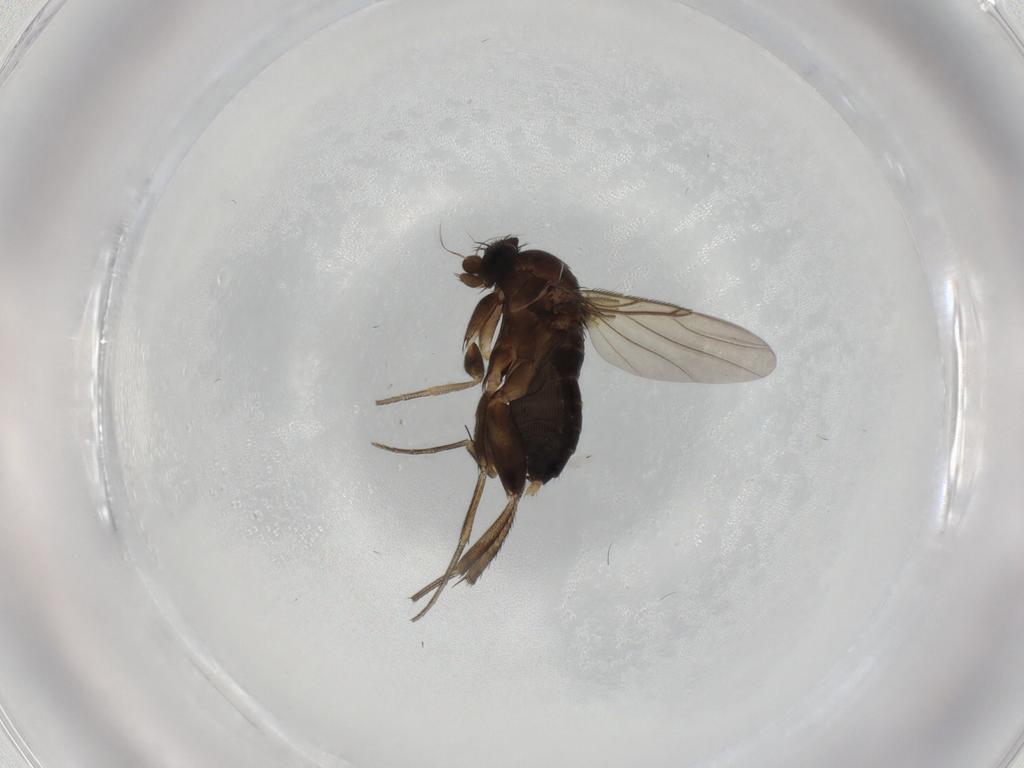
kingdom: Animalia
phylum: Arthropoda
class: Insecta
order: Diptera
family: Phoridae
